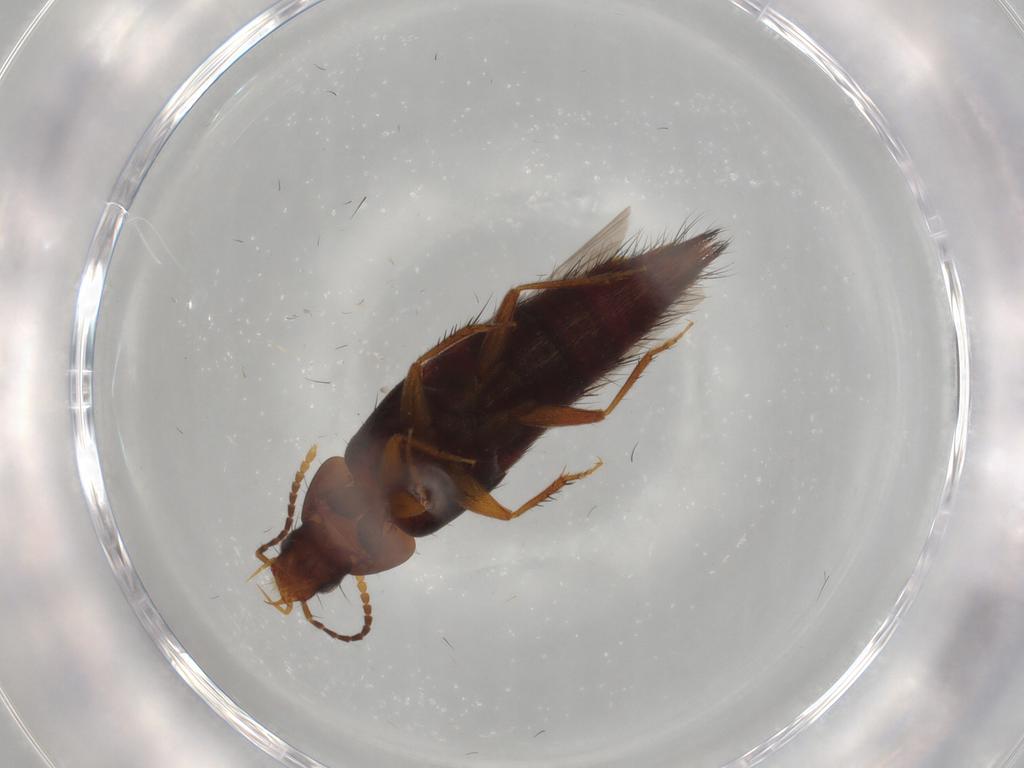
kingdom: Animalia
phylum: Arthropoda
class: Insecta
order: Coleoptera
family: Staphylinidae
